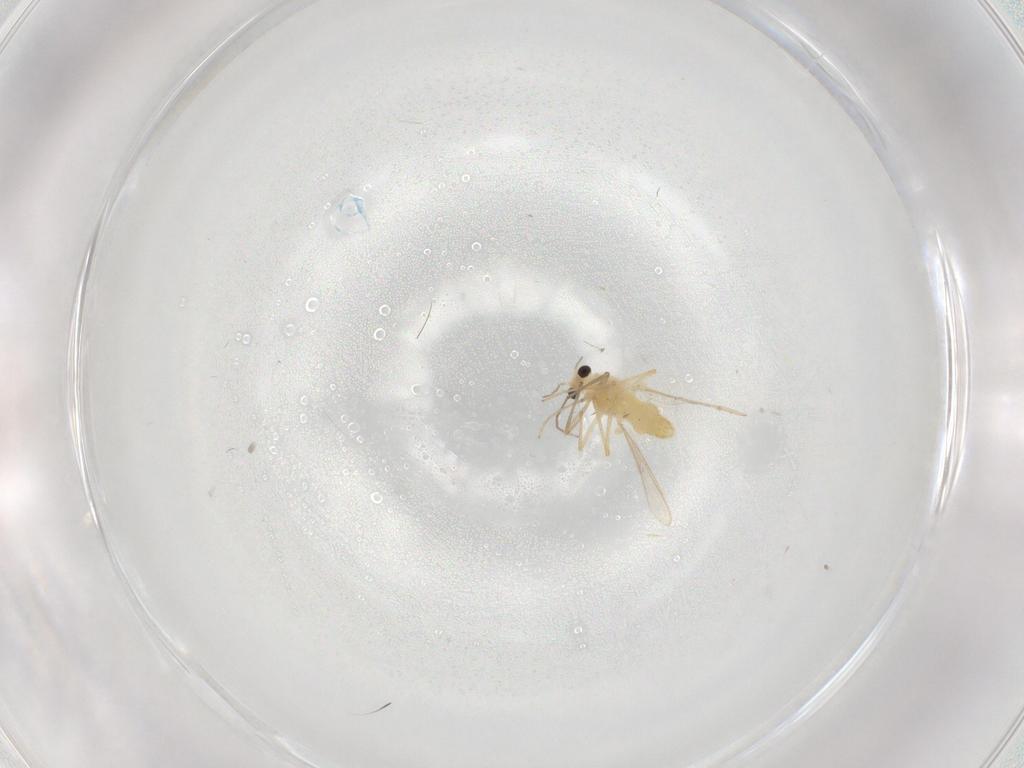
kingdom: Animalia
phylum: Arthropoda
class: Insecta
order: Diptera
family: Chironomidae
